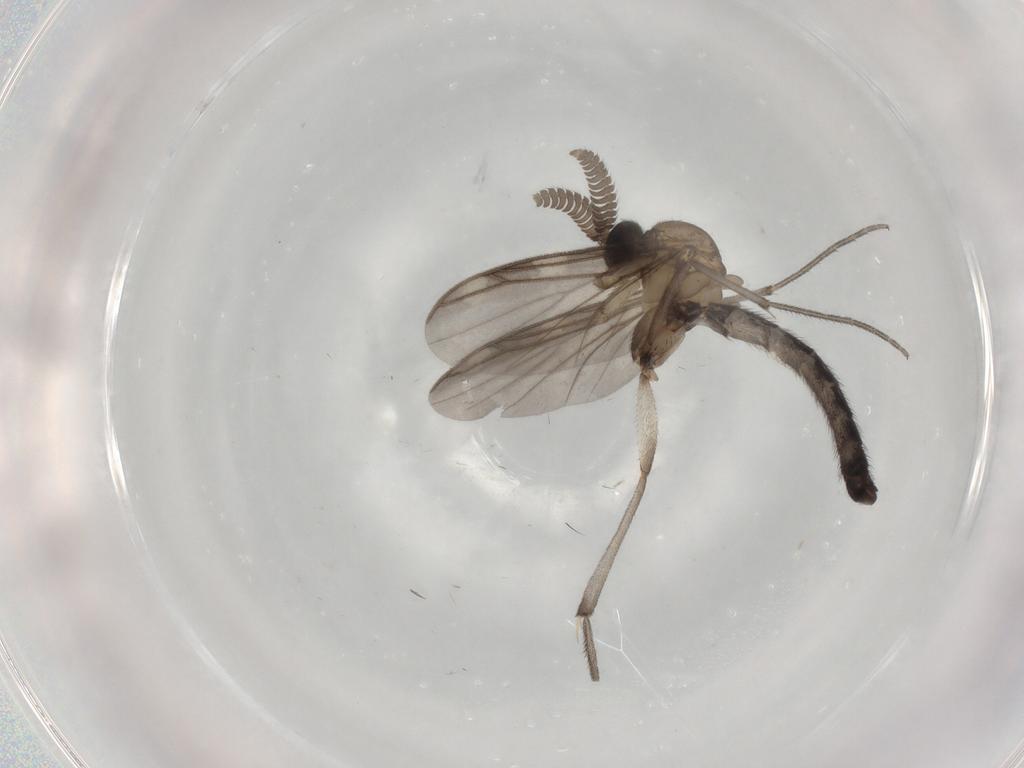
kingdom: Animalia
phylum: Arthropoda
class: Insecta
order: Diptera
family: Keroplatidae
